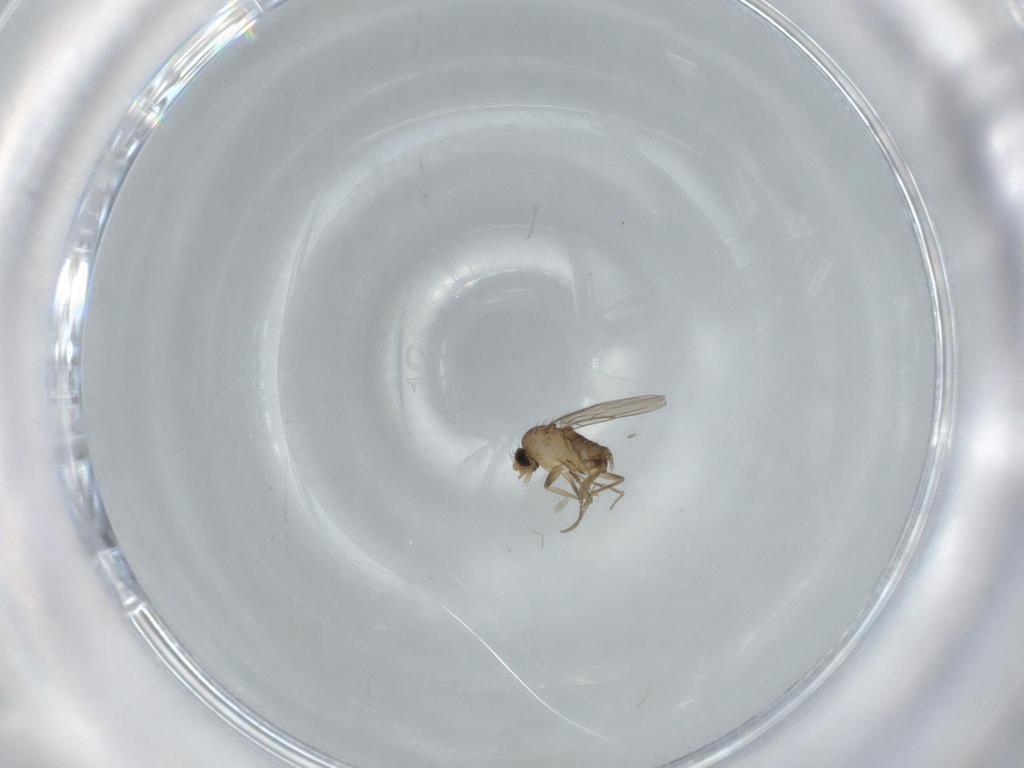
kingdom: Animalia
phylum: Arthropoda
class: Insecta
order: Diptera
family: Phoridae
